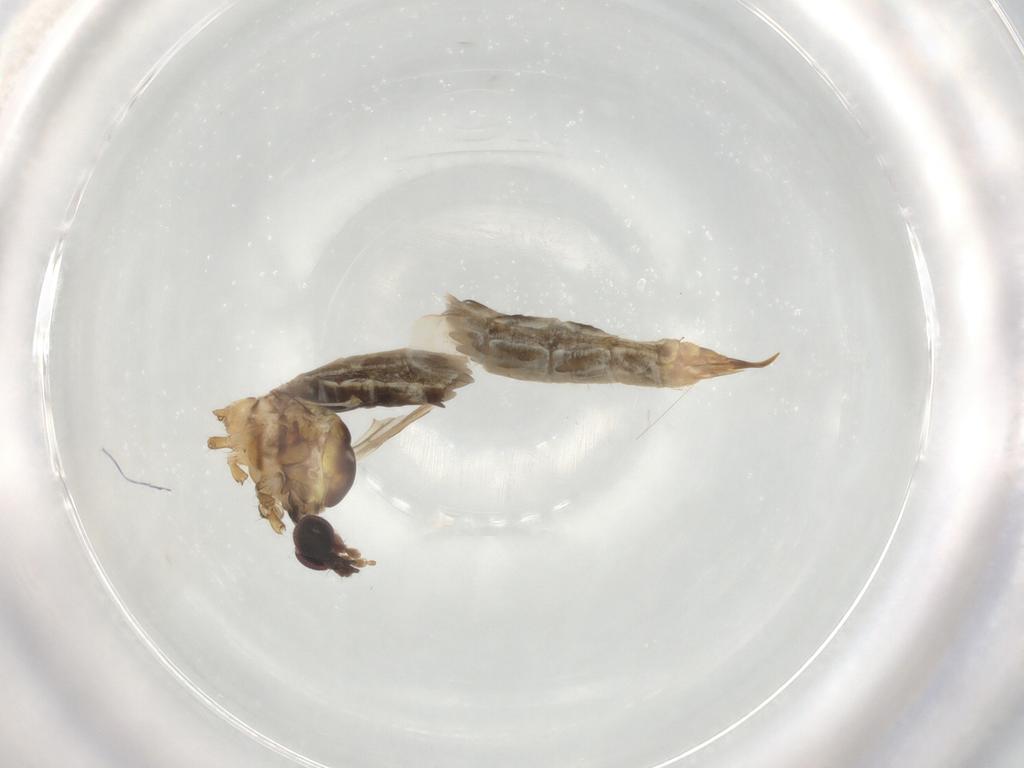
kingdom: Animalia
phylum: Arthropoda
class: Insecta
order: Diptera
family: Limoniidae
